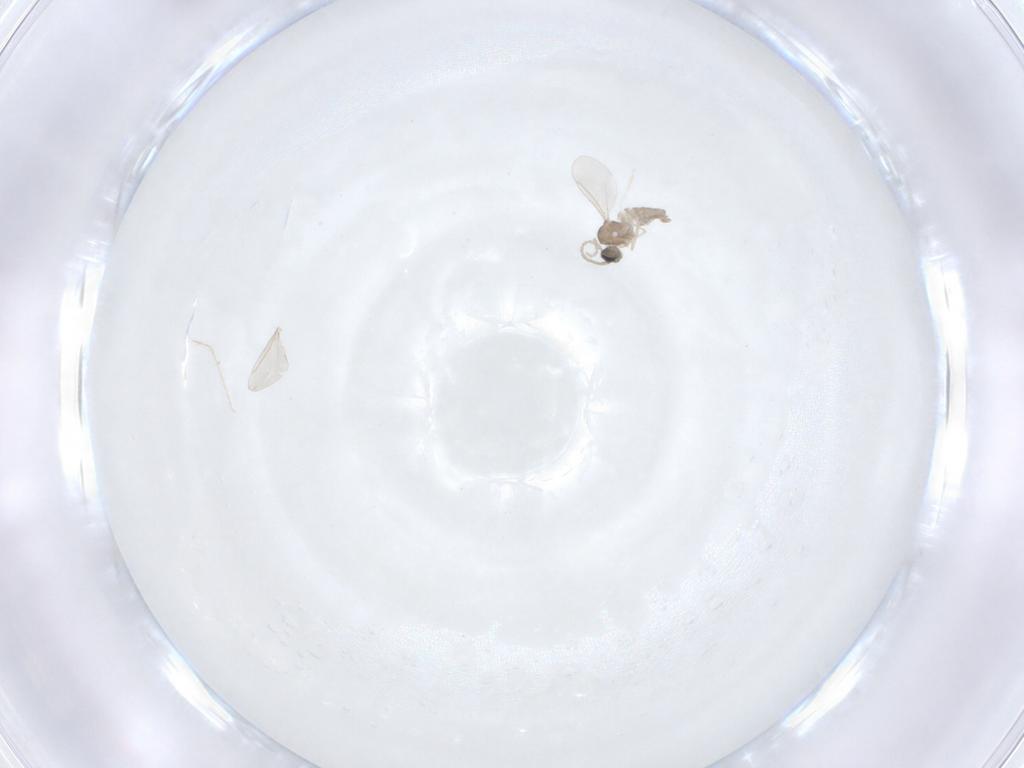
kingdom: Animalia
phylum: Arthropoda
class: Insecta
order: Diptera
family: Cecidomyiidae
